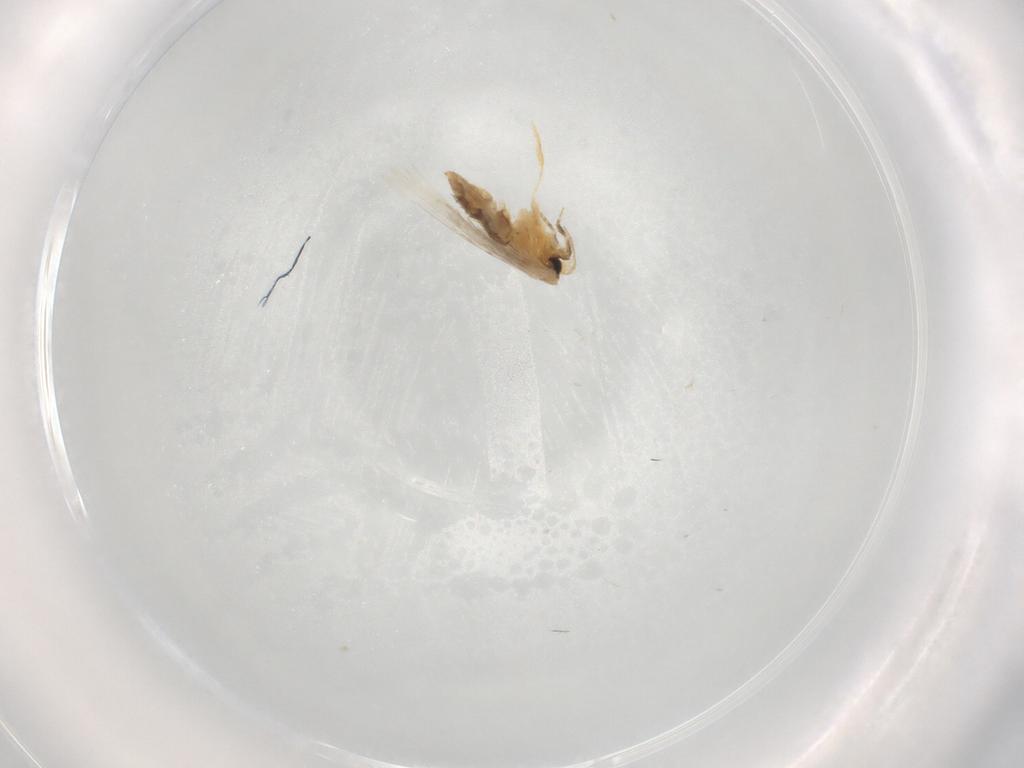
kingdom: Animalia
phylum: Arthropoda
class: Insecta
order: Lepidoptera
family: Nepticulidae
